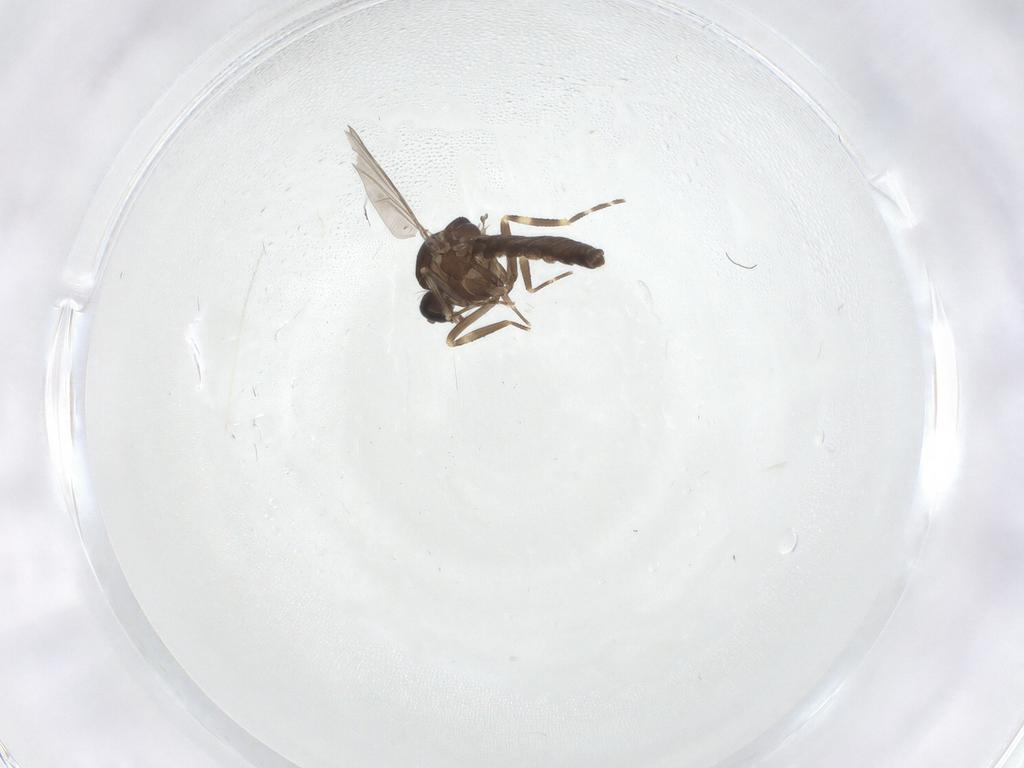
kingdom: Animalia
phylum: Arthropoda
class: Insecta
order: Diptera
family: Ceratopogonidae
